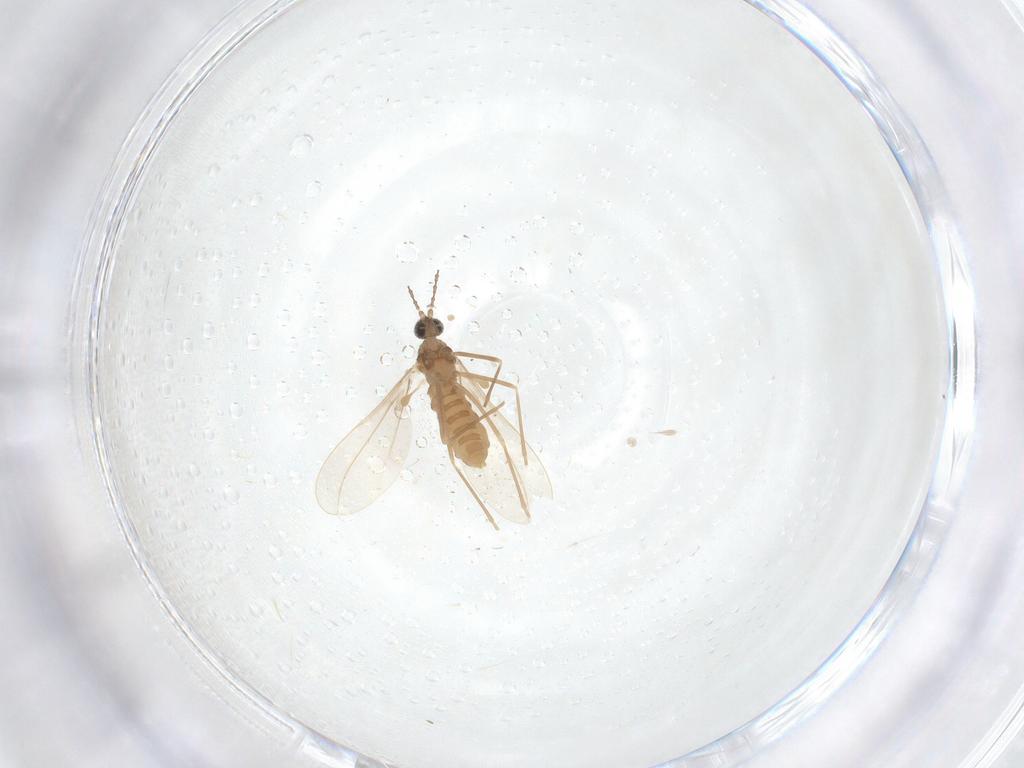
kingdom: Animalia
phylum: Arthropoda
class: Insecta
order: Diptera
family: Cecidomyiidae
